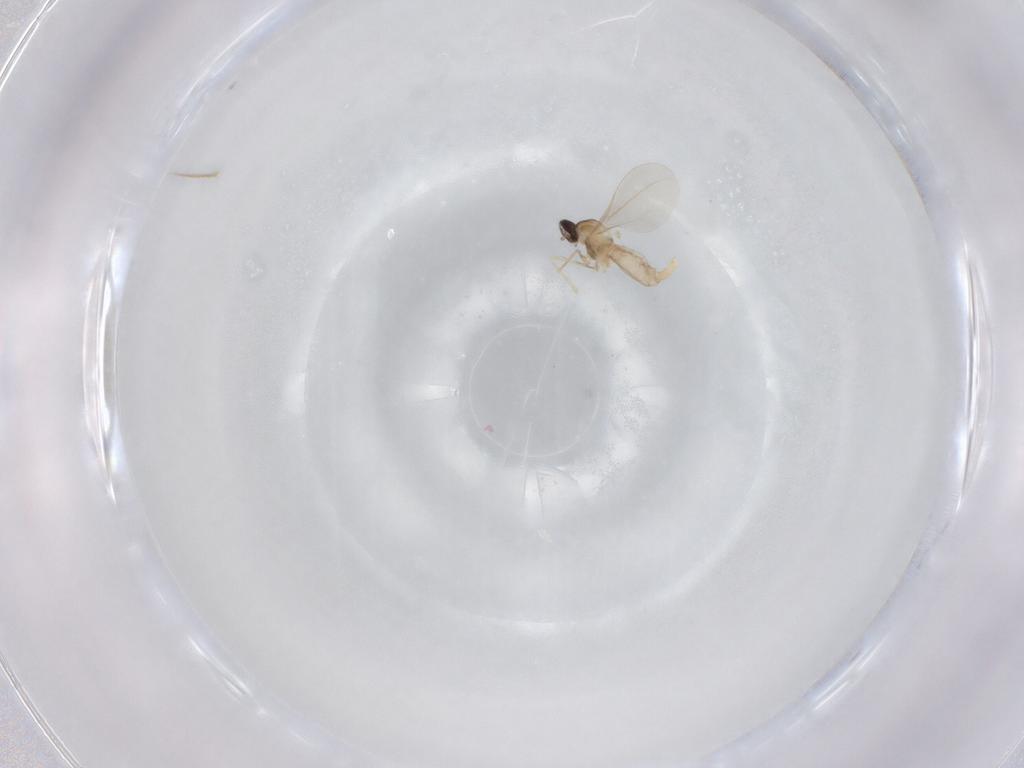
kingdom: Animalia
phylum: Arthropoda
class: Insecta
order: Diptera
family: Cecidomyiidae
